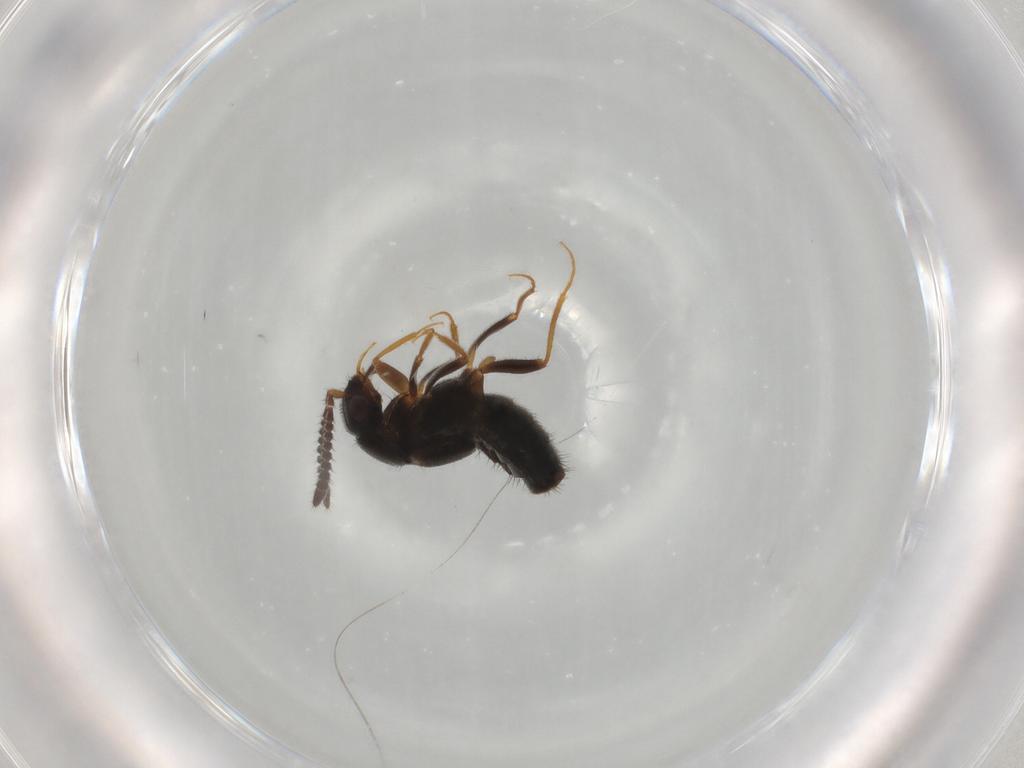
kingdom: Animalia
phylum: Arthropoda
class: Insecta
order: Coleoptera
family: Staphylinidae
